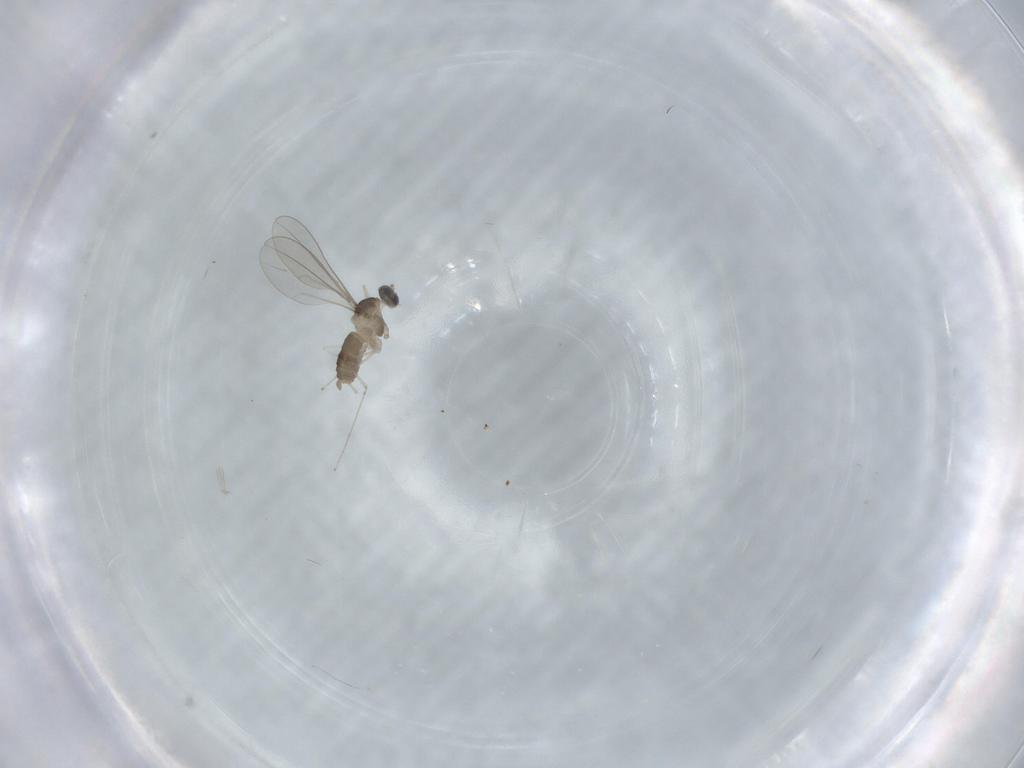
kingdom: Animalia
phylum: Arthropoda
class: Insecta
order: Diptera
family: Cecidomyiidae
